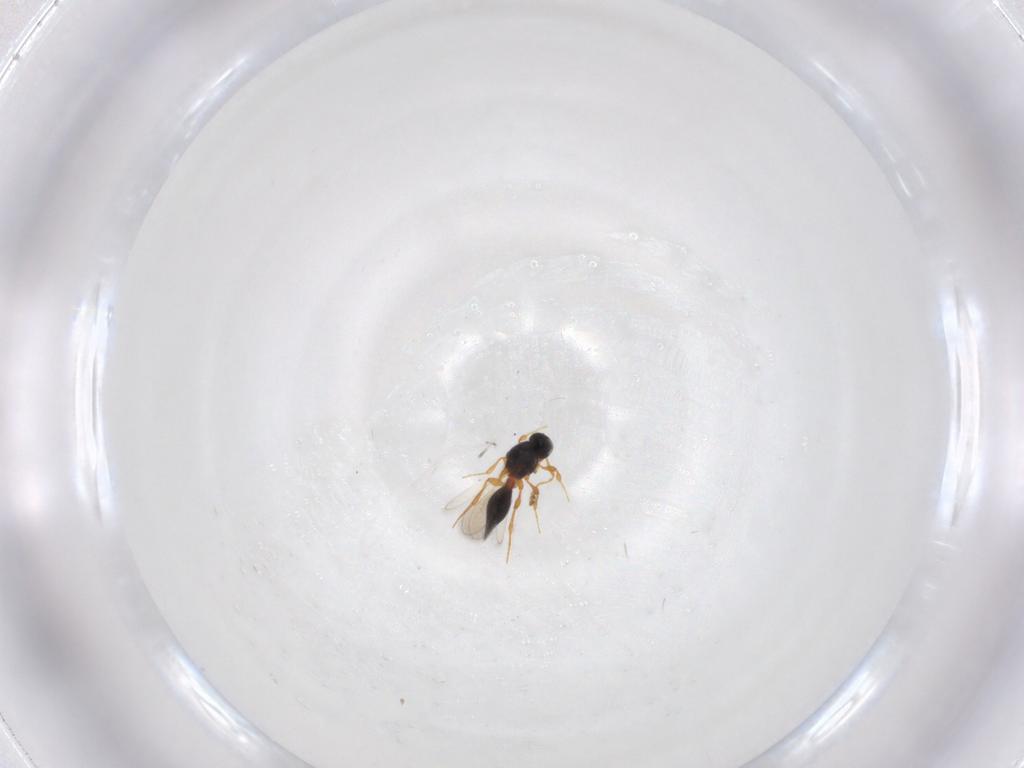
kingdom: Animalia
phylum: Arthropoda
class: Insecta
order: Hymenoptera
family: Platygastridae
